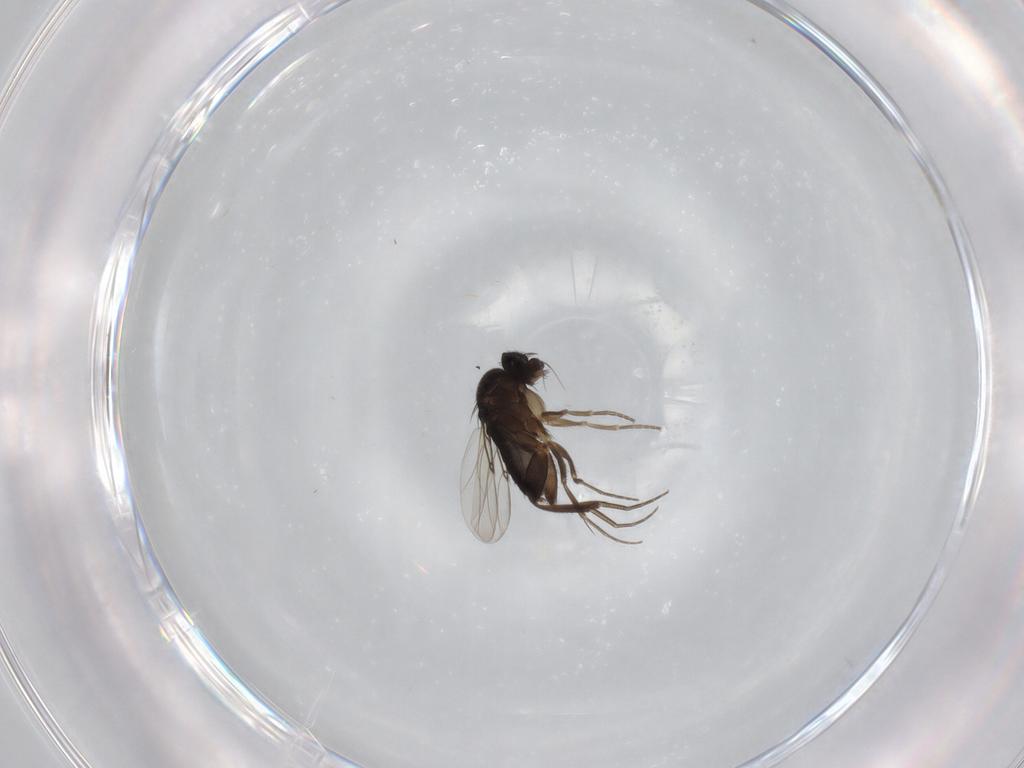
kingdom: Animalia
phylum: Arthropoda
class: Insecta
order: Diptera
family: Phoridae
